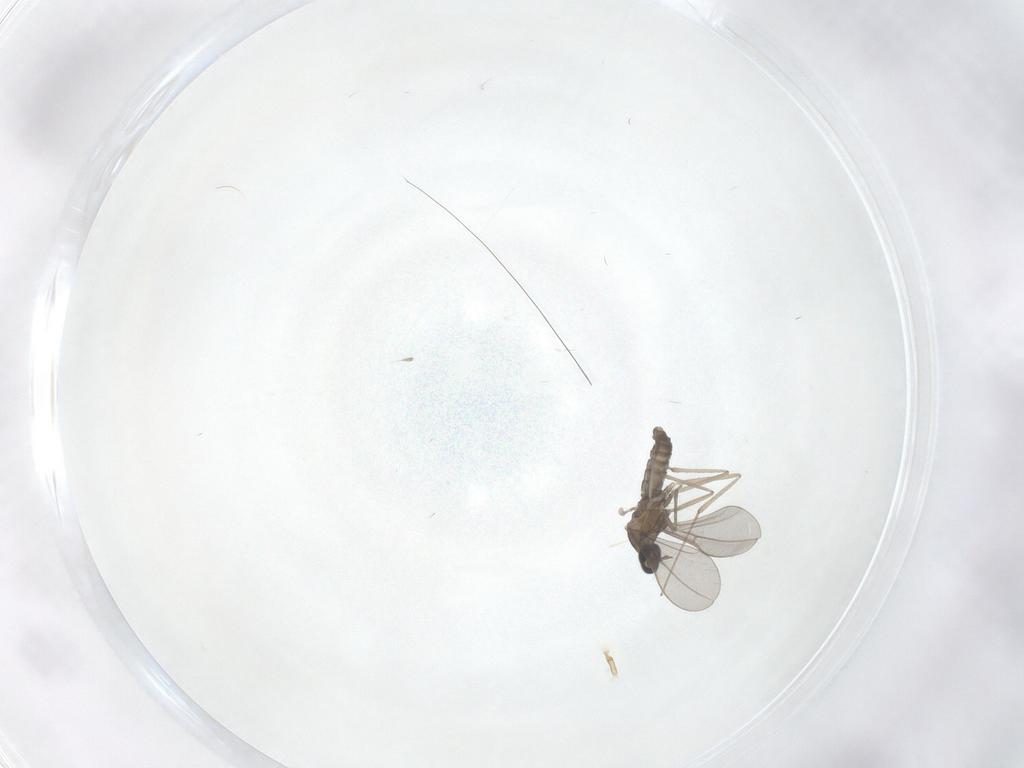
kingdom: Animalia
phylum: Arthropoda
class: Insecta
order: Diptera
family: Cecidomyiidae
